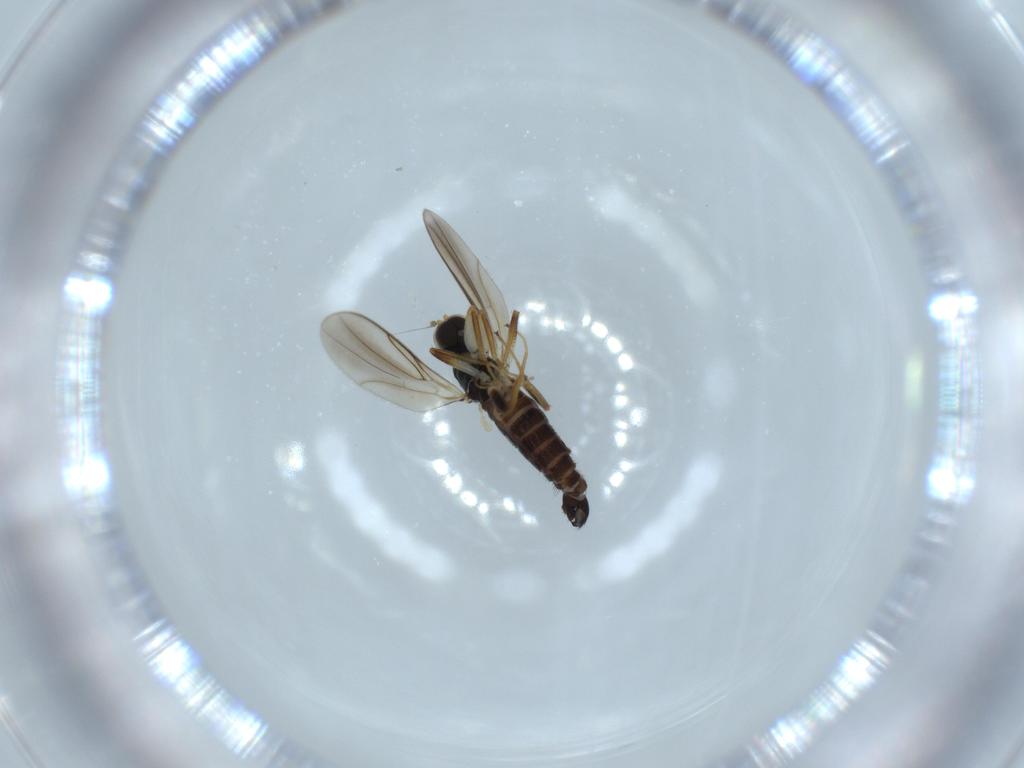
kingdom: Animalia
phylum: Arthropoda
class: Insecta
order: Diptera
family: Hybotidae
